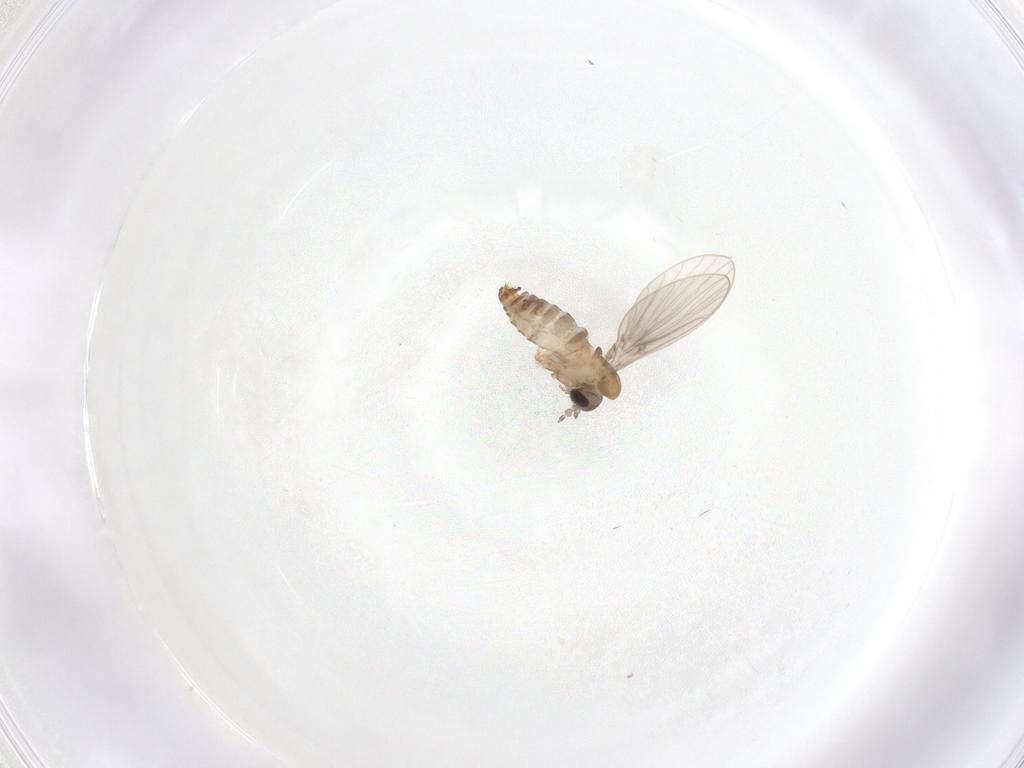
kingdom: Animalia
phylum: Arthropoda
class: Insecta
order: Diptera
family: Psychodidae
